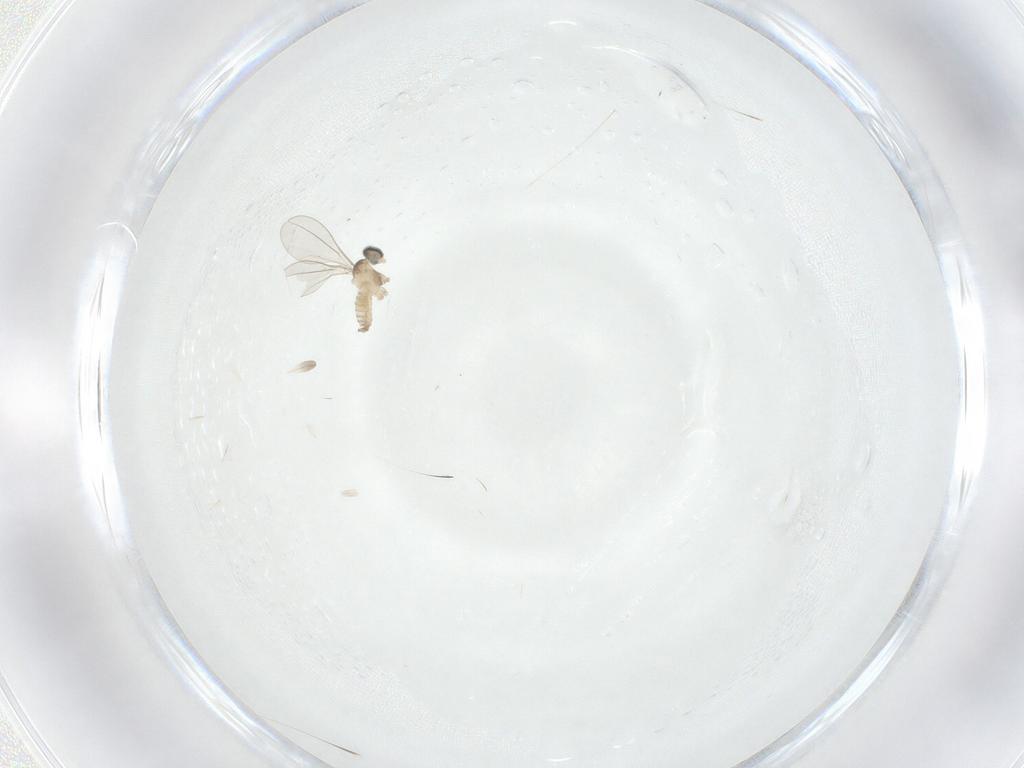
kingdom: Animalia
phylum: Arthropoda
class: Insecta
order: Diptera
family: Cecidomyiidae
